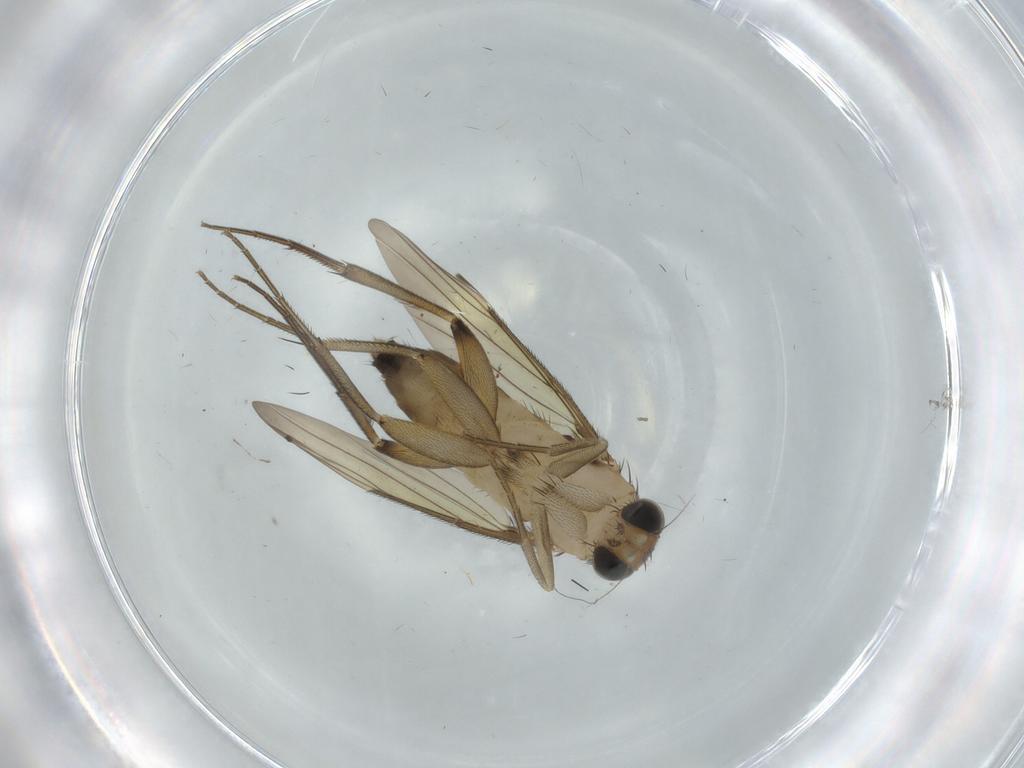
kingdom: Animalia
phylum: Arthropoda
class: Insecta
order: Diptera
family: Phoridae
